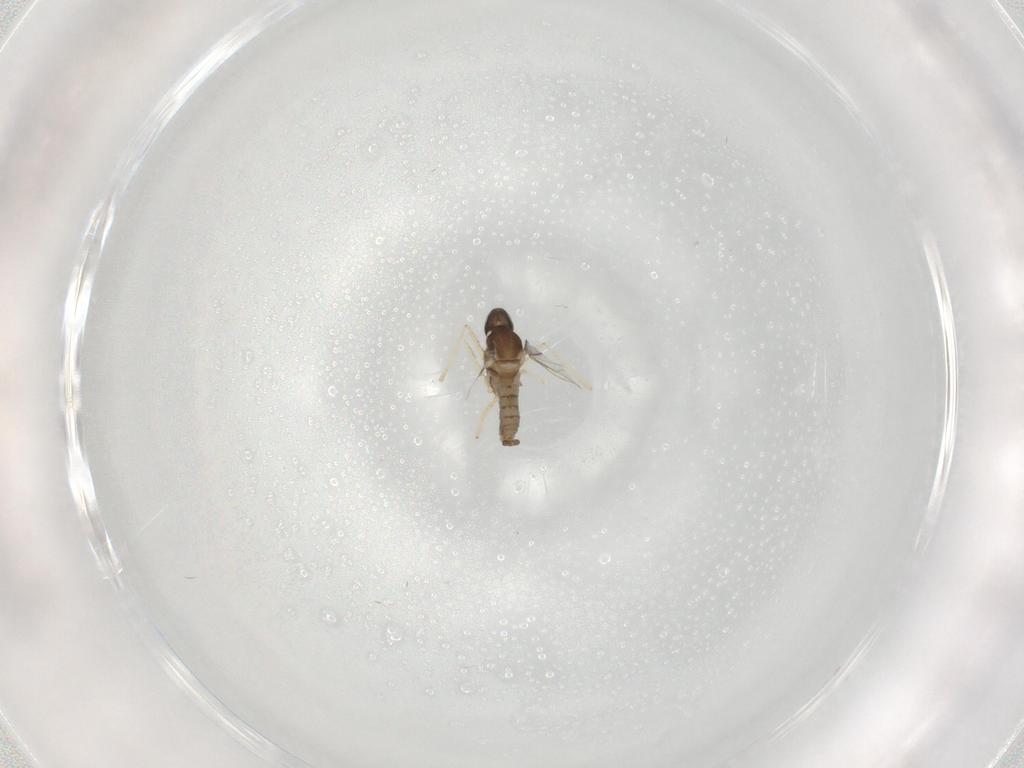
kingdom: Animalia
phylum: Arthropoda
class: Insecta
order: Diptera
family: Cecidomyiidae
